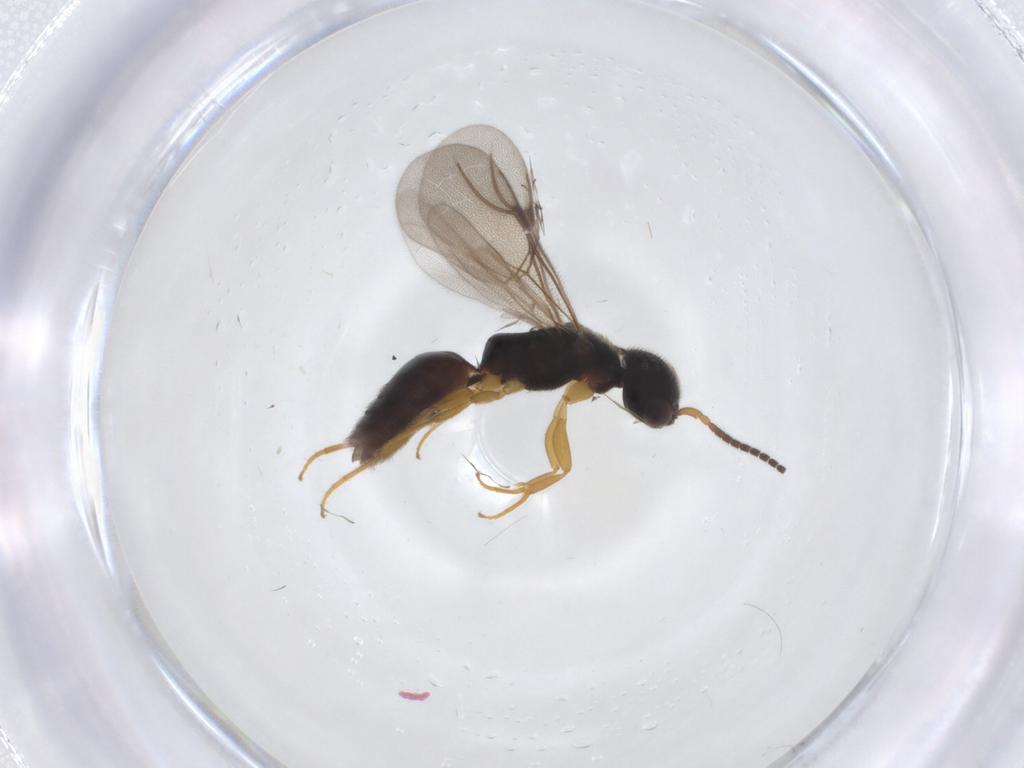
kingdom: Animalia
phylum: Arthropoda
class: Insecta
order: Hymenoptera
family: Bethylidae
